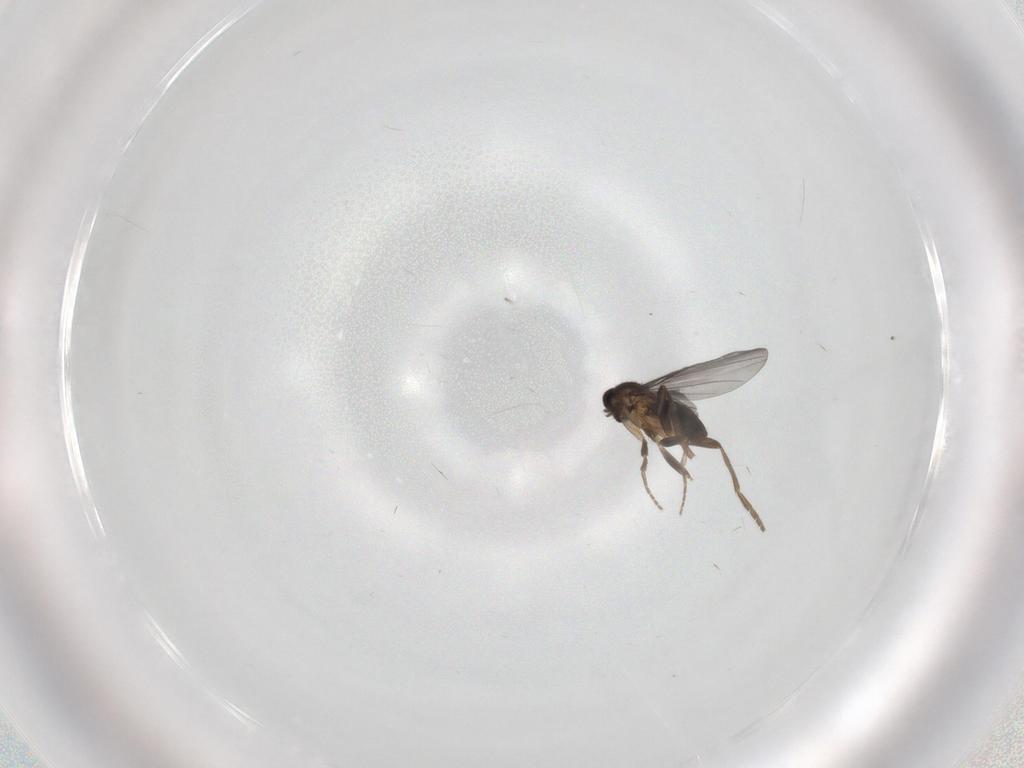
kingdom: Animalia
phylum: Arthropoda
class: Insecta
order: Diptera
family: Phoridae
